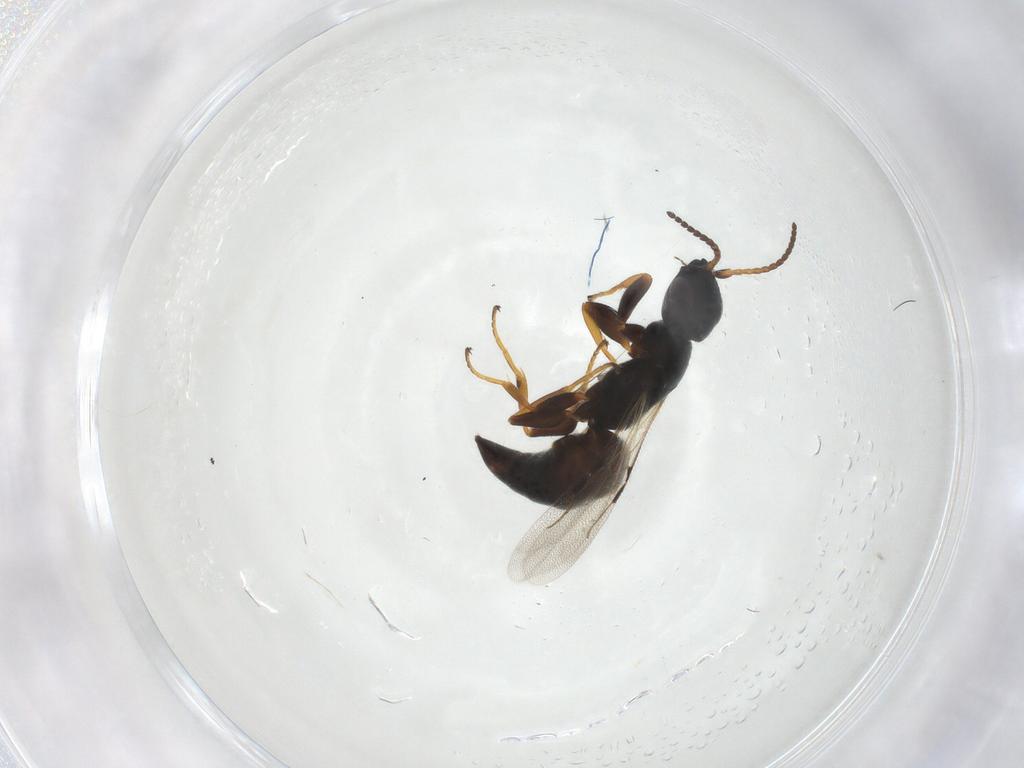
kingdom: Animalia
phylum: Arthropoda
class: Insecta
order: Hymenoptera
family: Bethylidae
